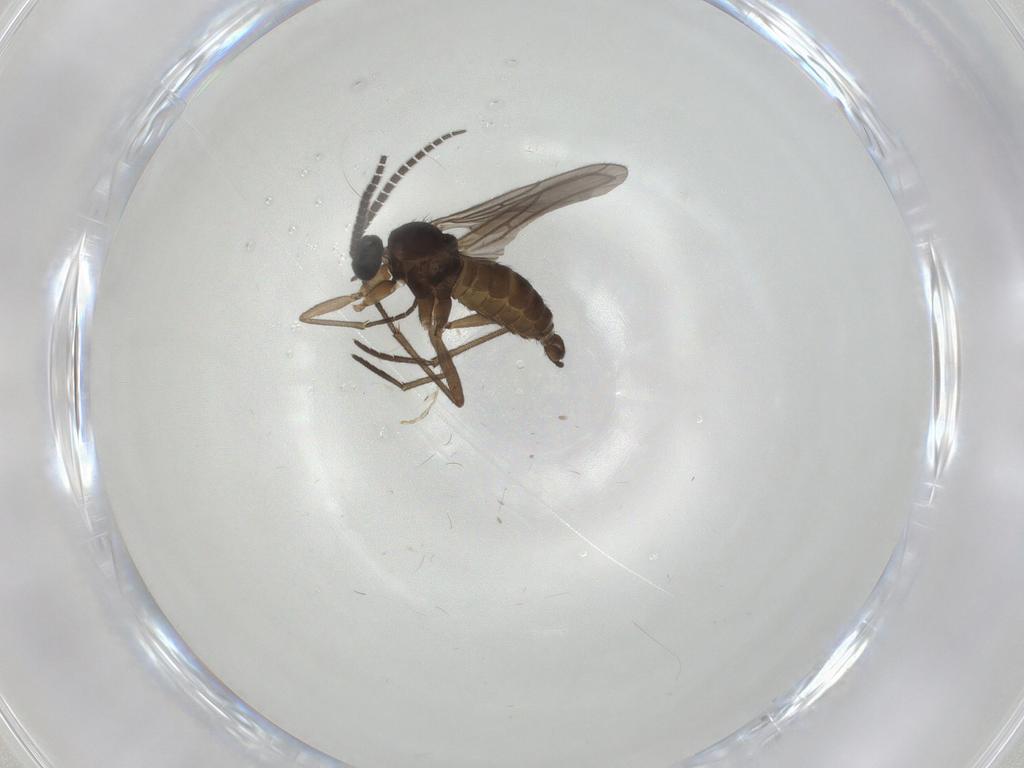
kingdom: Animalia
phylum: Arthropoda
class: Insecta
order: Diptera
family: Sciaridae
